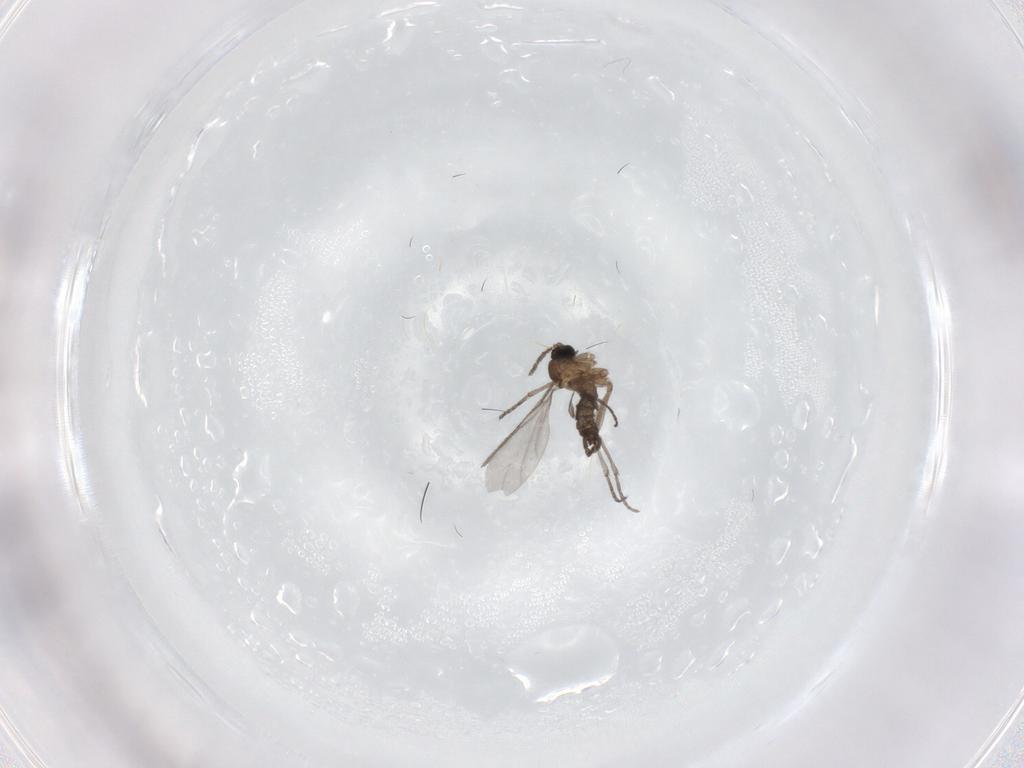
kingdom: Animalia
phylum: Arthropoda
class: Insecta
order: Diptera
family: Sciaridae
